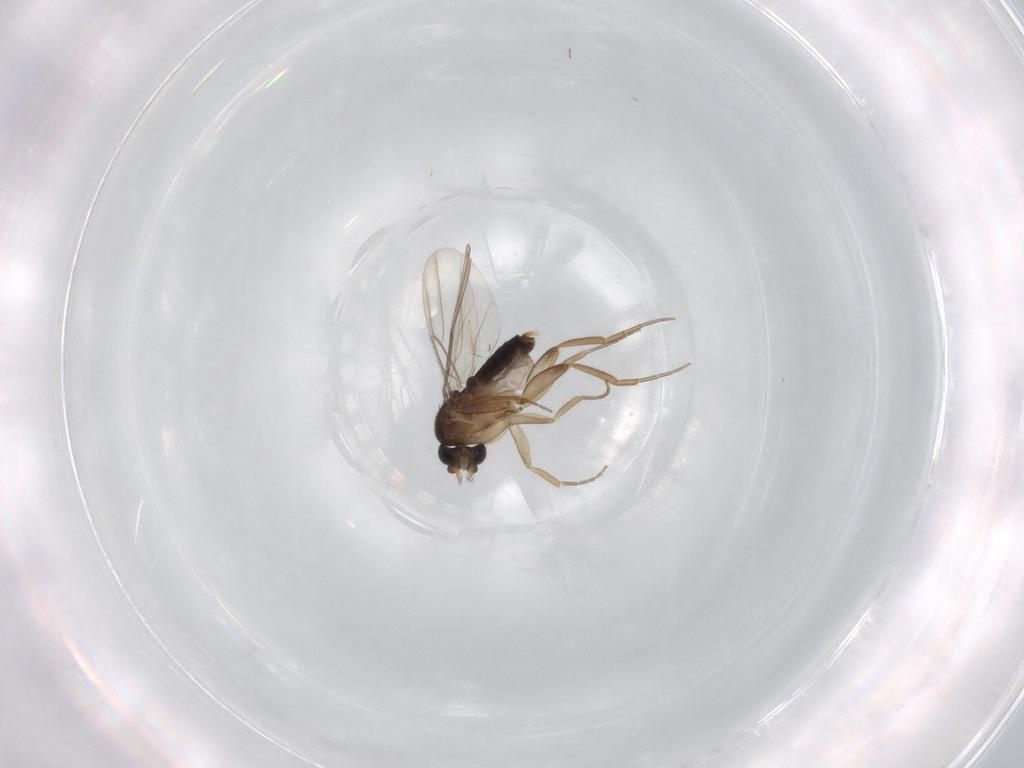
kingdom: Animalia
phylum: Arthropoda
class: Insecta
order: Diptera
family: Phoridae
